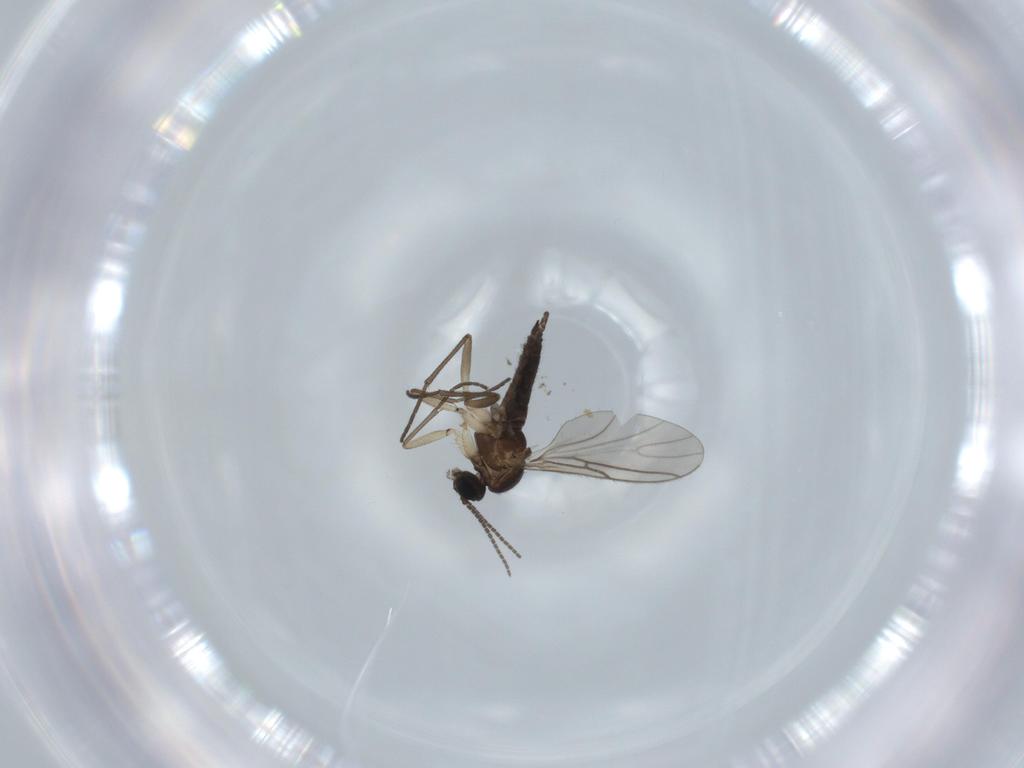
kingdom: Animalia
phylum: Arthropoda
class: Insecta
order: Diptera
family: Sciaridae
